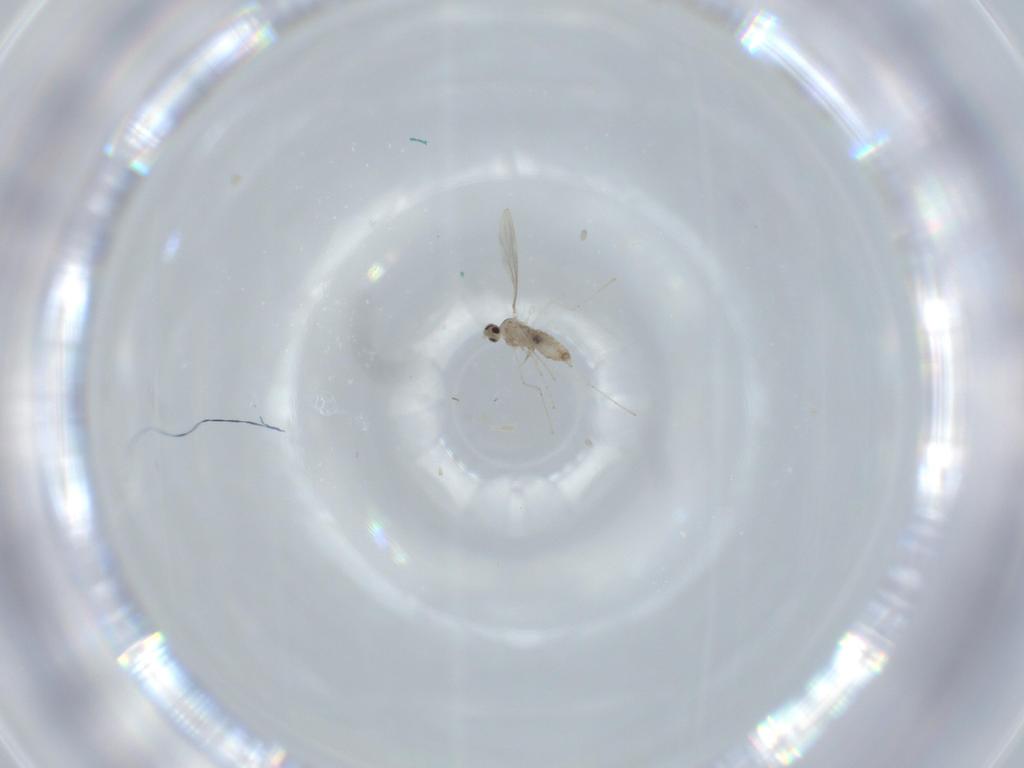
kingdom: Animalia
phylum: Arthropoda
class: Insecta
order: Diptera
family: Cecidomyiidae
